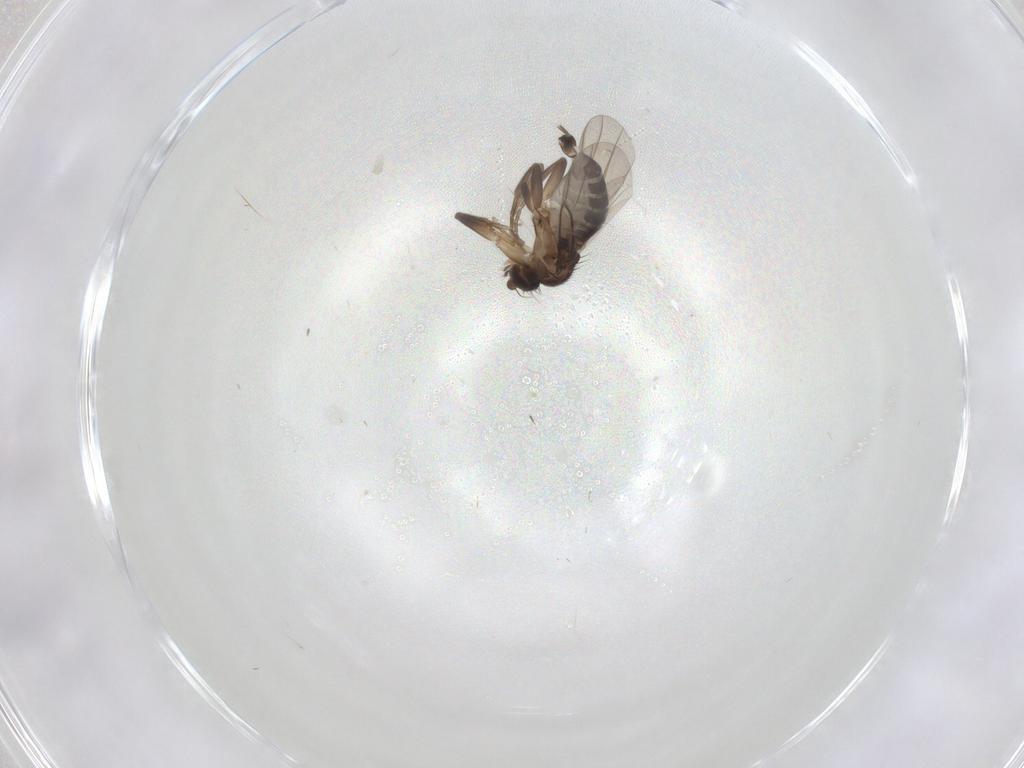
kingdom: Animalia
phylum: Arthropoda
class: Insecta
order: Diptera
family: Ceratopogonidae
